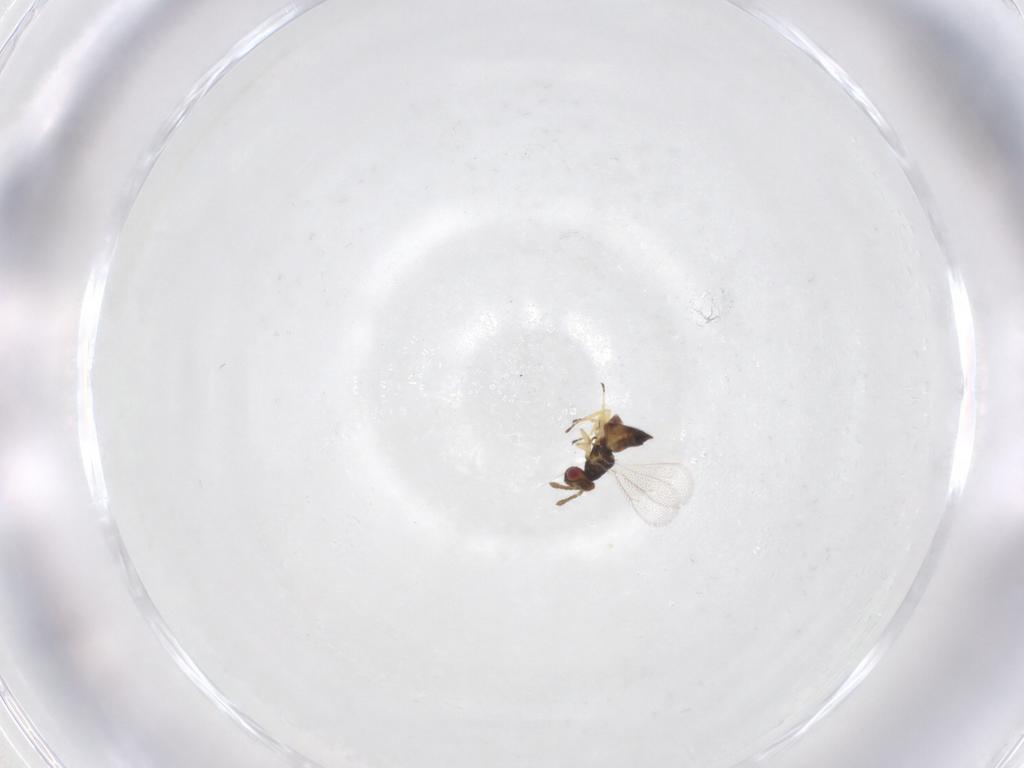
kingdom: Animalia
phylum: Arthropoda
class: Insecta
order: Hymenoptera
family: Eulophidae
